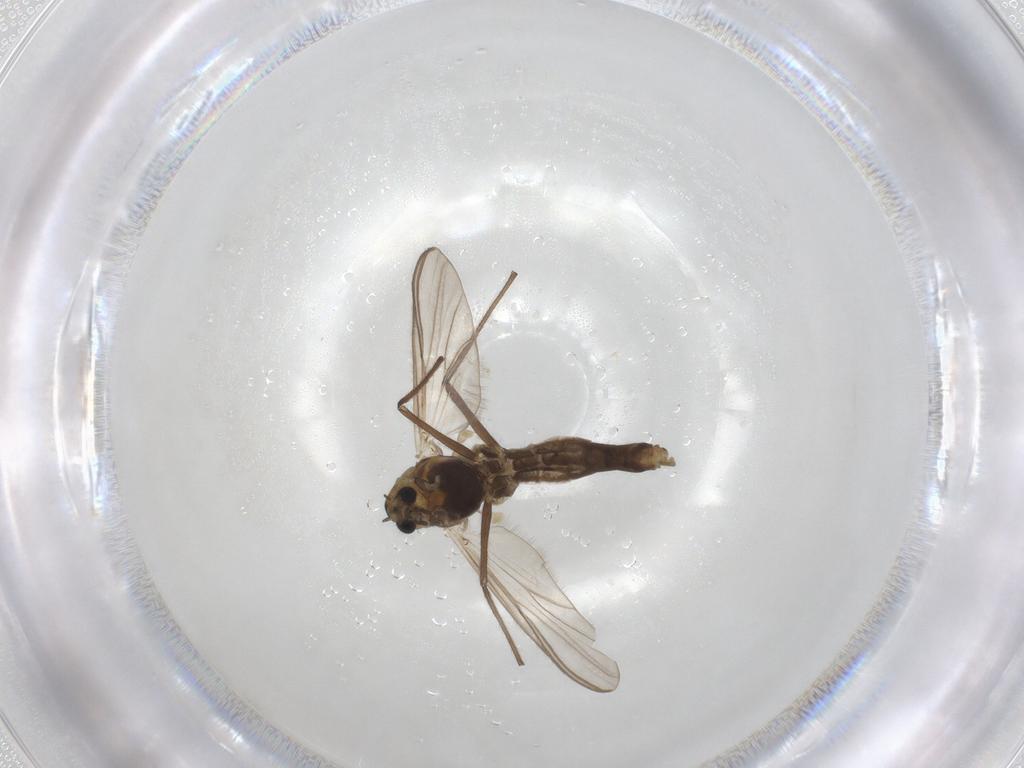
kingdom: Animalia
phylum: Arthropoda
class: Insecta
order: Diptera
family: Chironomidae
